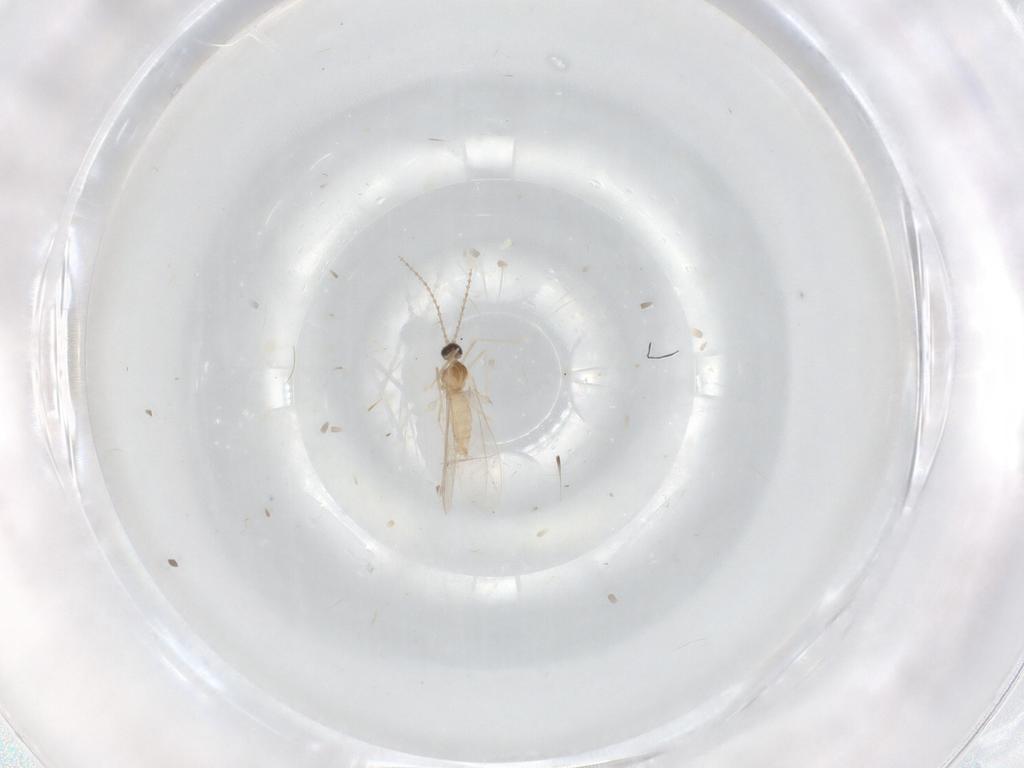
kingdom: Animalia
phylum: Arthropoda
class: Insecta
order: Diptera
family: Cecidomyiidae
